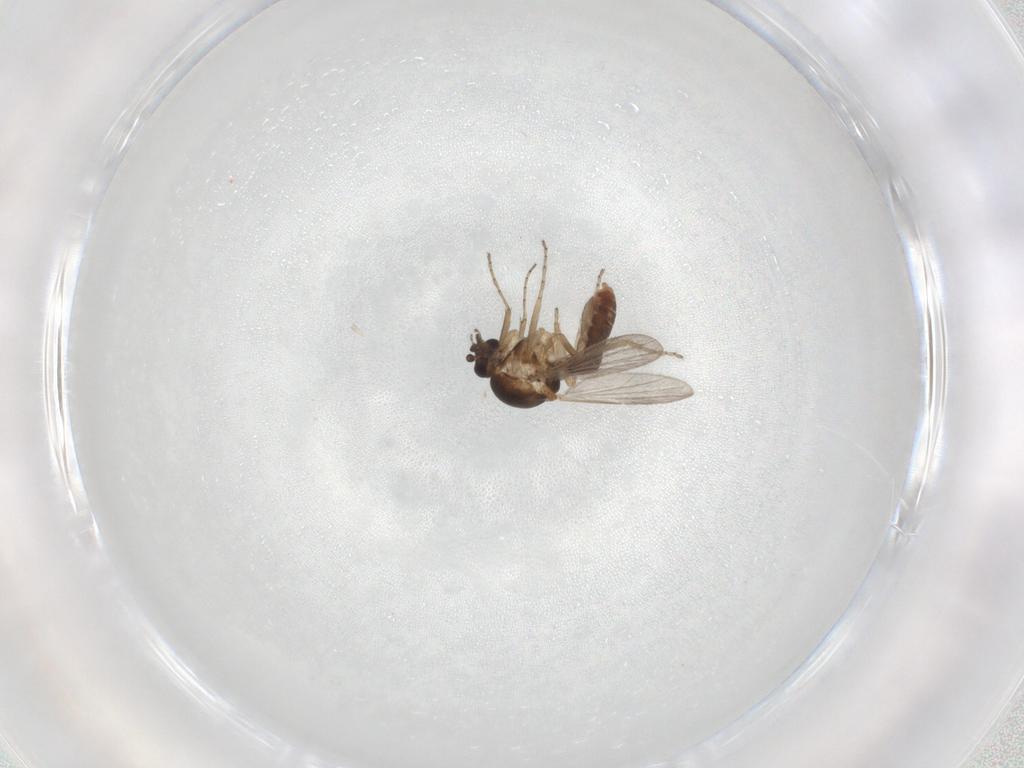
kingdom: Animalia
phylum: Arthropoda
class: Insecta
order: Diptera
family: Ceratopogonidae
